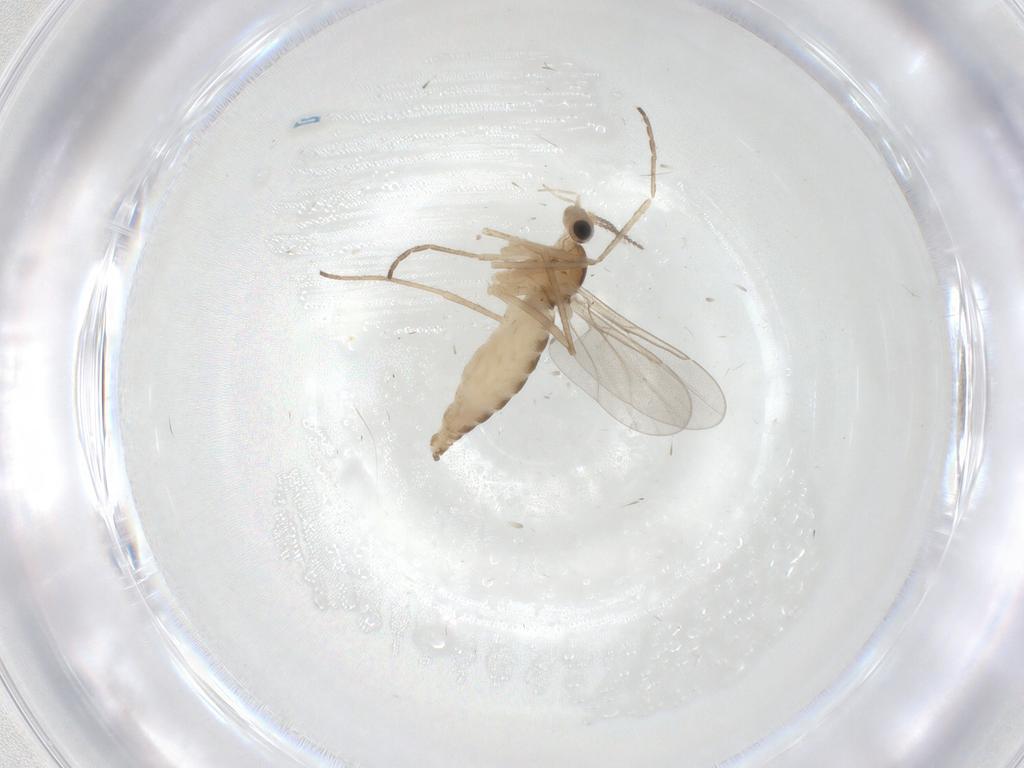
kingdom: Animalia
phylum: Arthropoda
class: Insecta
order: Diptera
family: Cecidomyiidae
